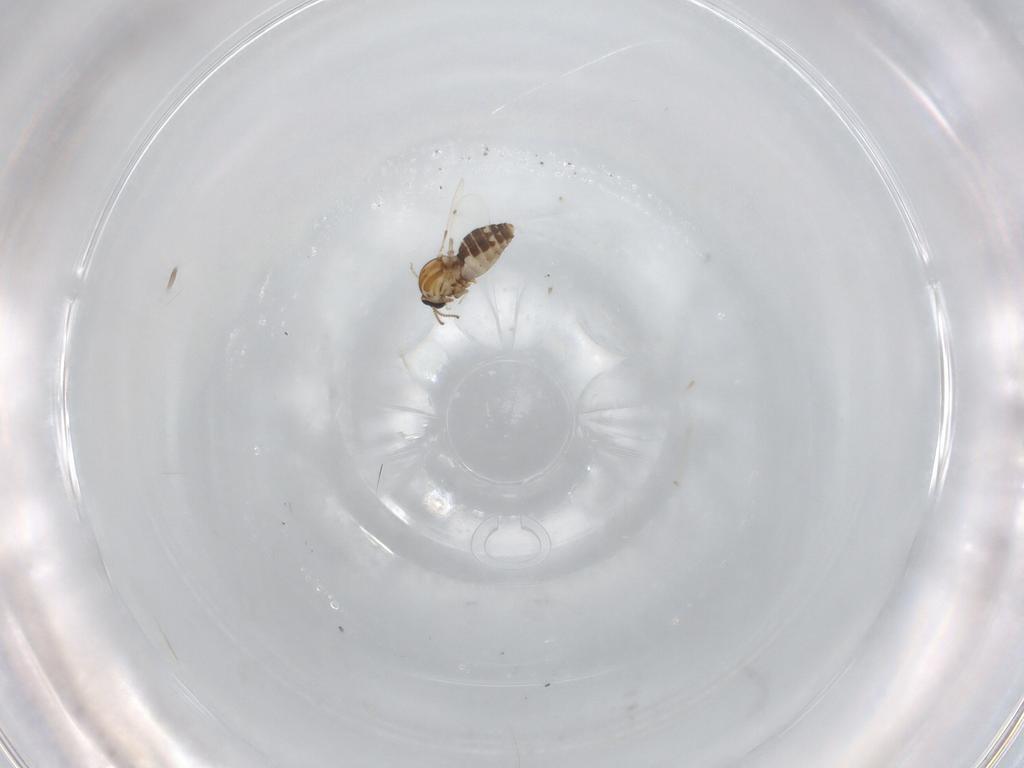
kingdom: Animalia
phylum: Arthropoda
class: Insecta
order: Diptera
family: Ceratopogonidae
